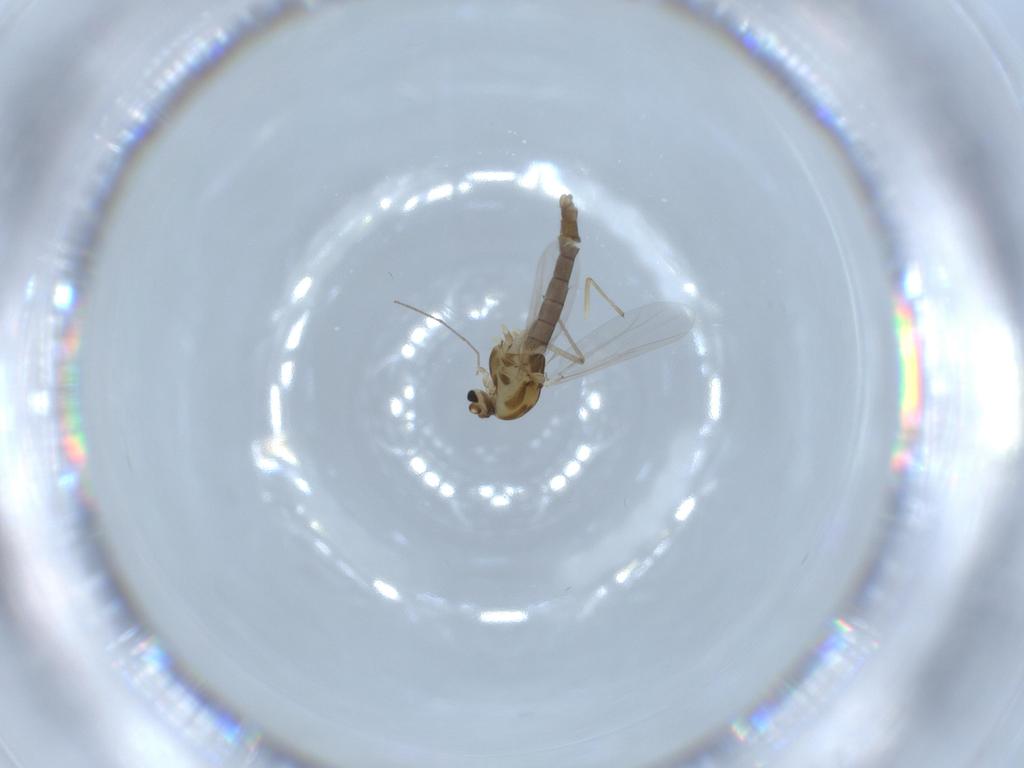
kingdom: Animalia
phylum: Arthropoda
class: Insecta
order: Diptera
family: Chironomidae
